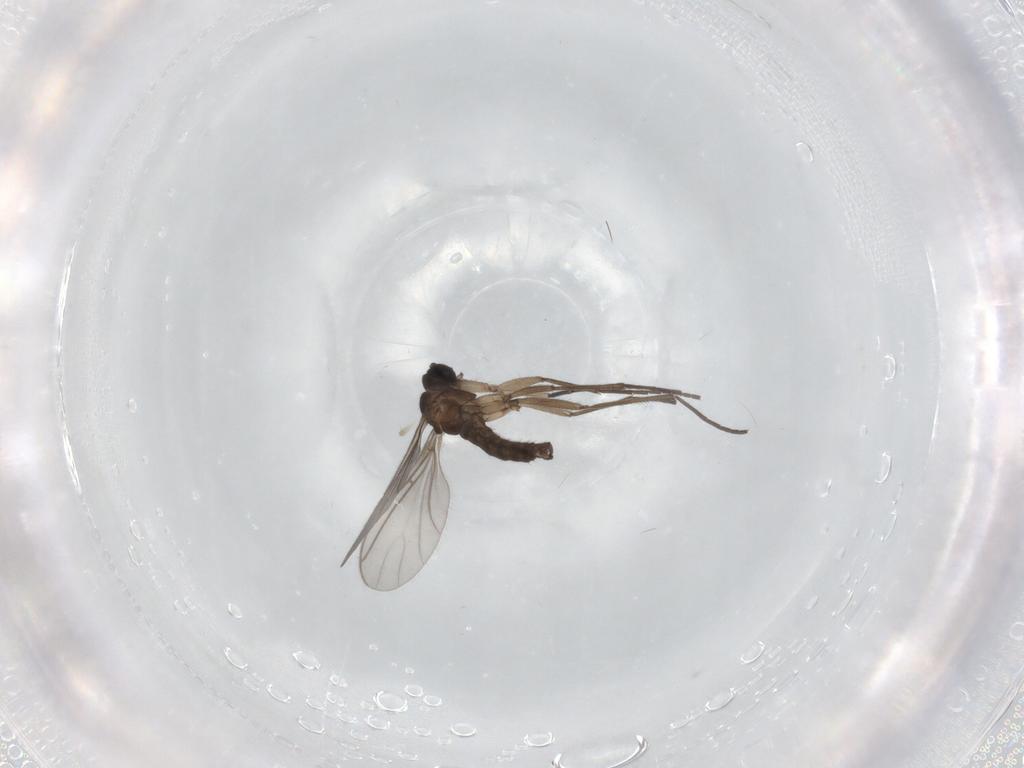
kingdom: Animalia
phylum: Arthropoda
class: Insecta
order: Diptera
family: Sciaridae
